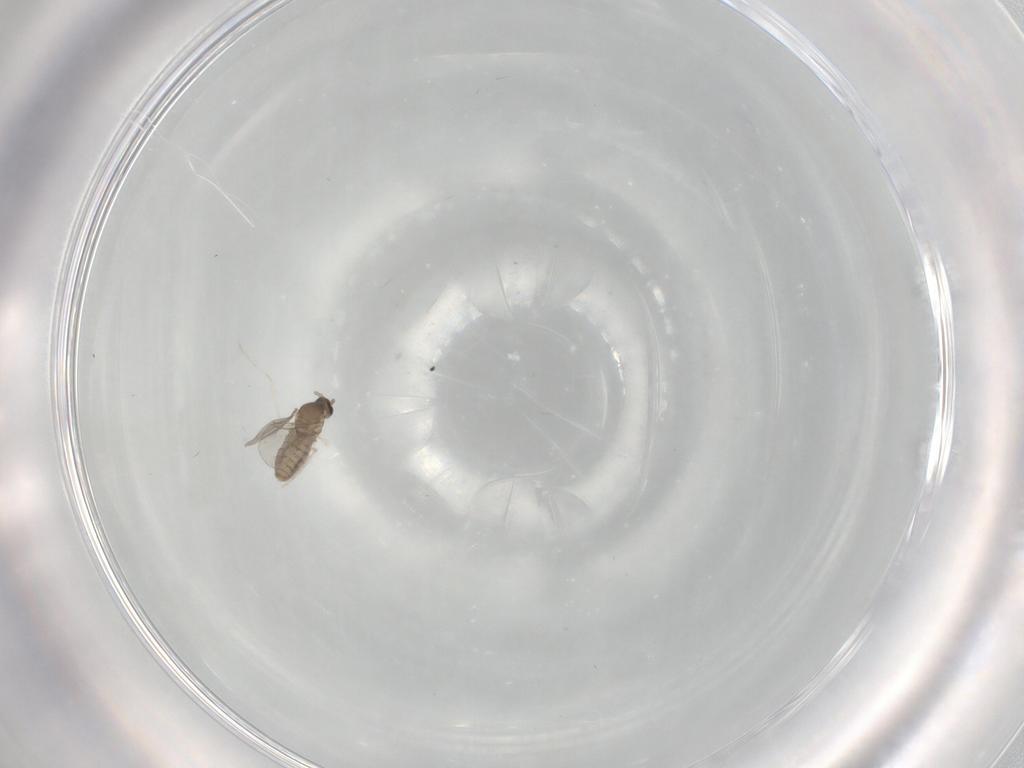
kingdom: Animalia
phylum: Arthropoda
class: Insecta
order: Diptera
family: Cecidomyiidae
